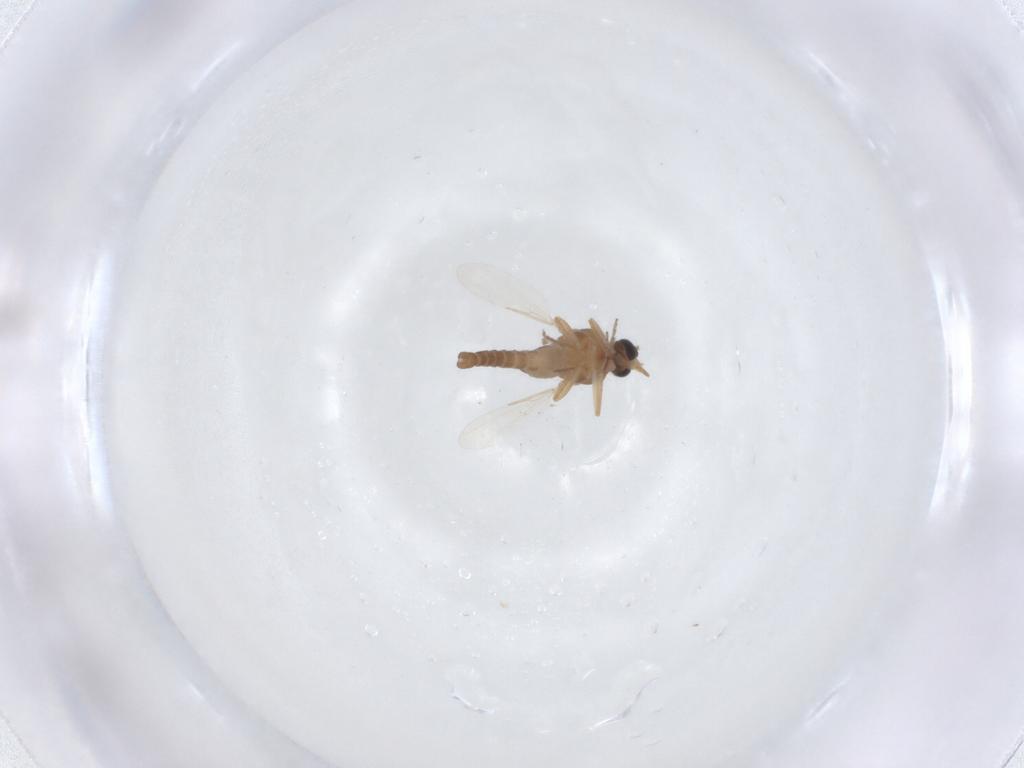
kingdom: Animalia
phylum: Arthropoda
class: Insecta
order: Diptera
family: Ceratopogonidae
